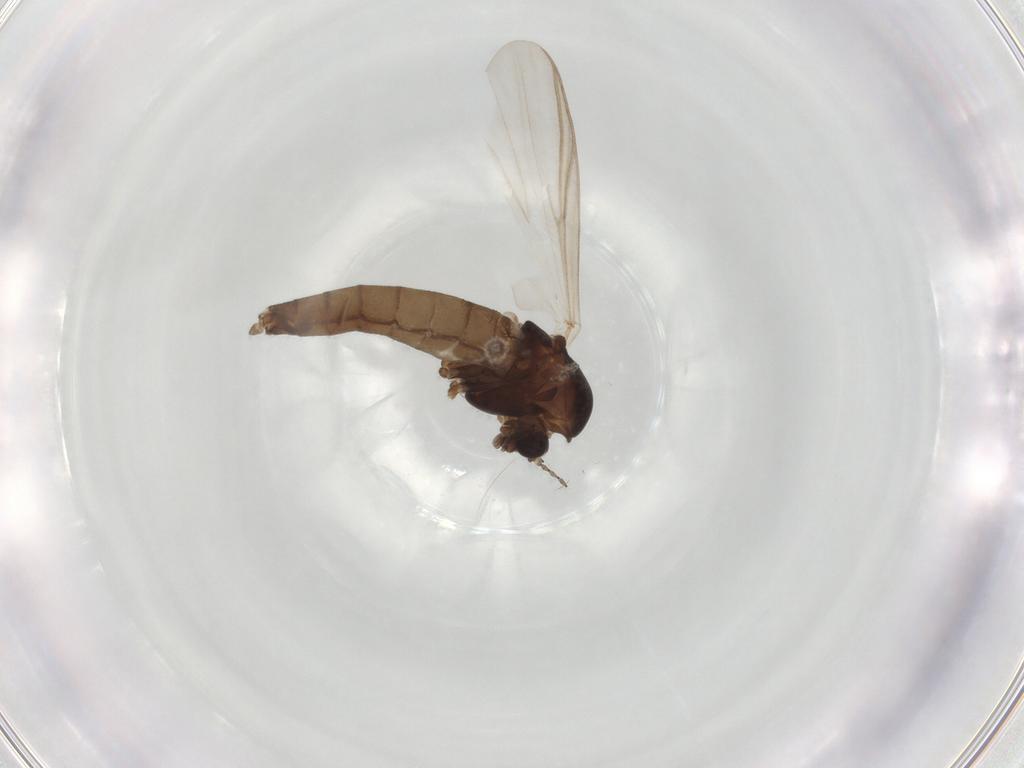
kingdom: Animalia
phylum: Arthropoda
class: Insecta
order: Diptera
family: Muscidae
